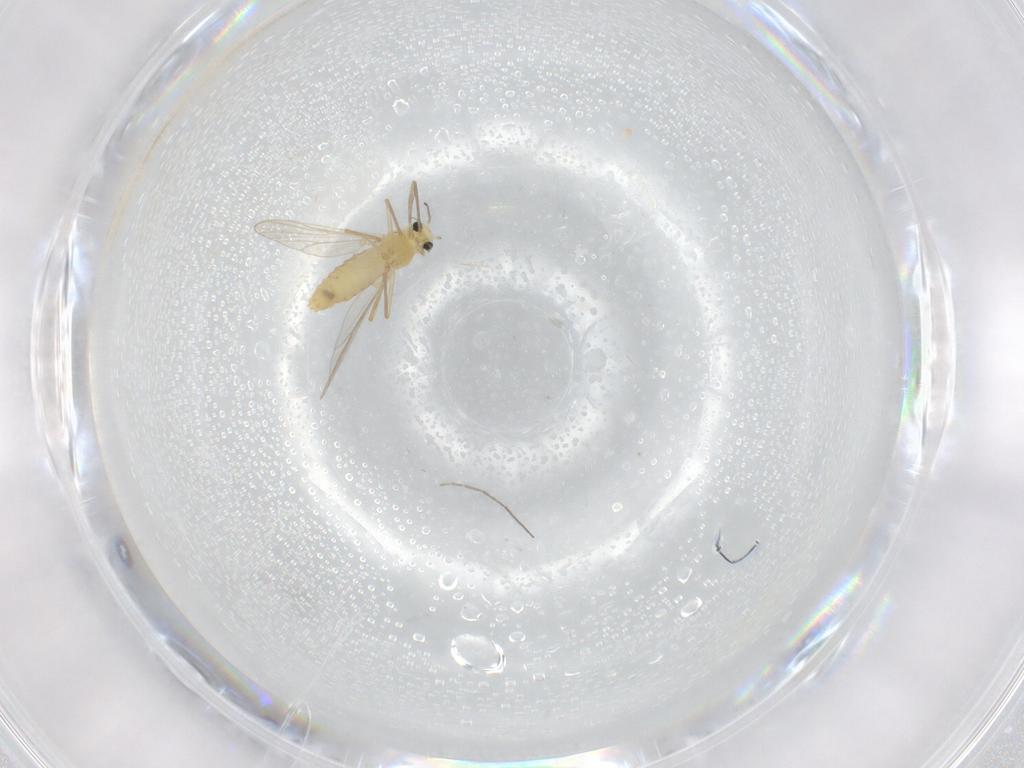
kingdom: Animalia
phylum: Arthropoda
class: Insecta
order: Diptera
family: Chironomidae
